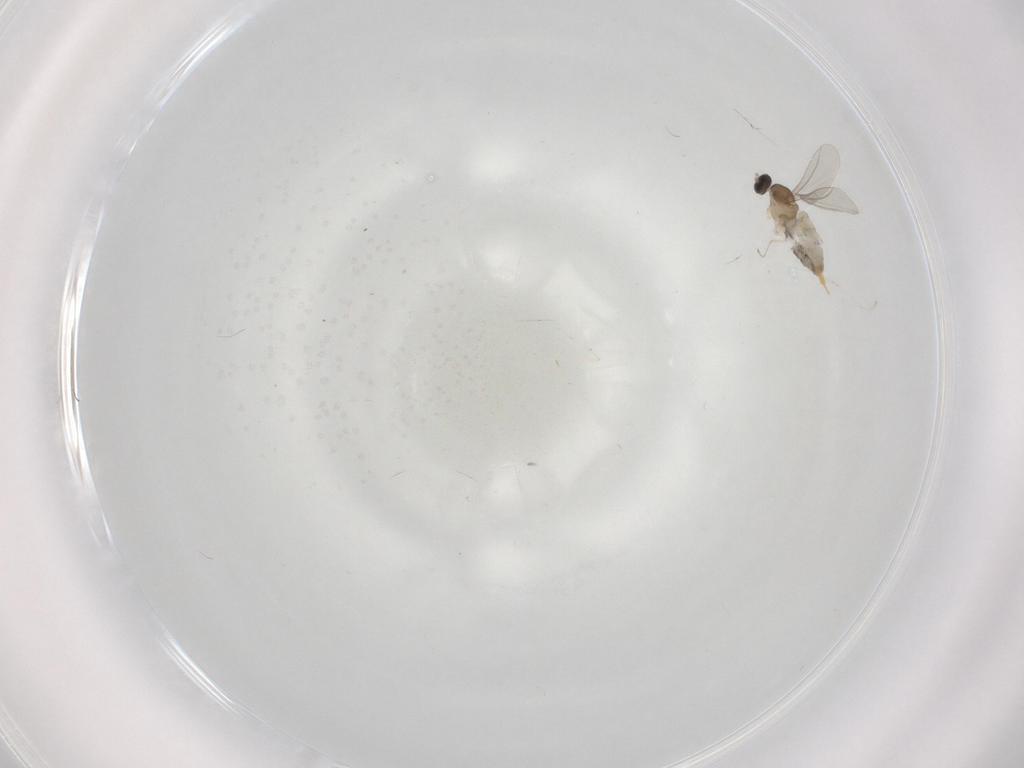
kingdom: Animalia
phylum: Arthropoda
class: Insecta
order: Diptera
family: Cecidomyiidae
